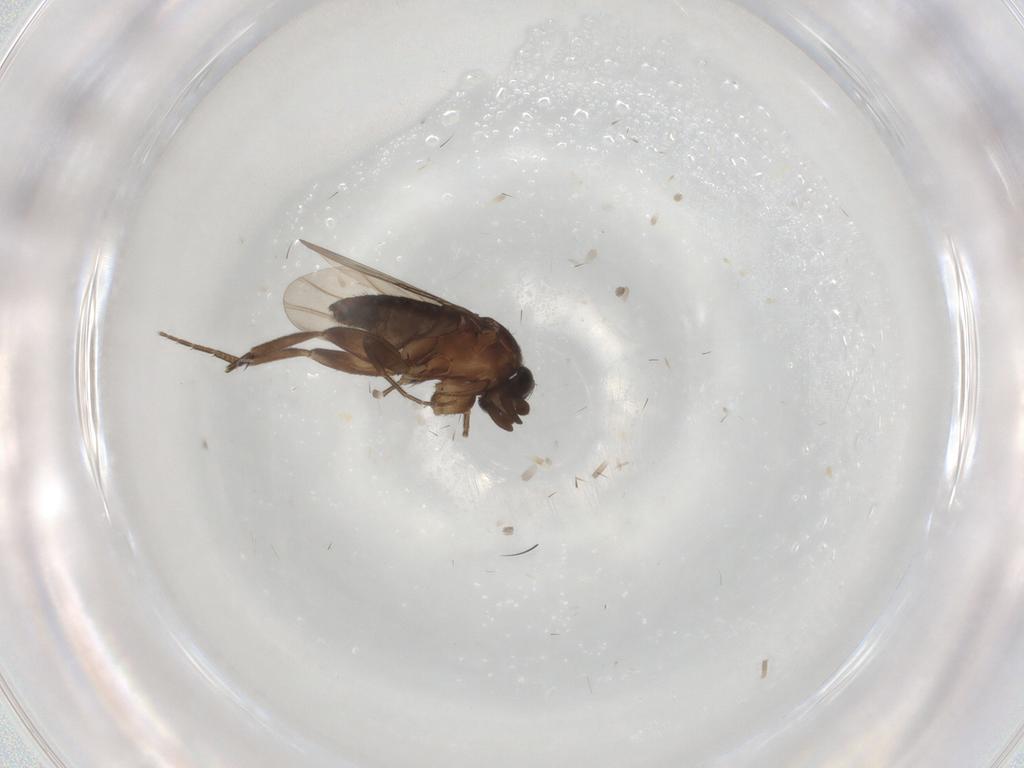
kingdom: Animalia
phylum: Arthropoda
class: Insecta
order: Diptera
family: Phoridae
